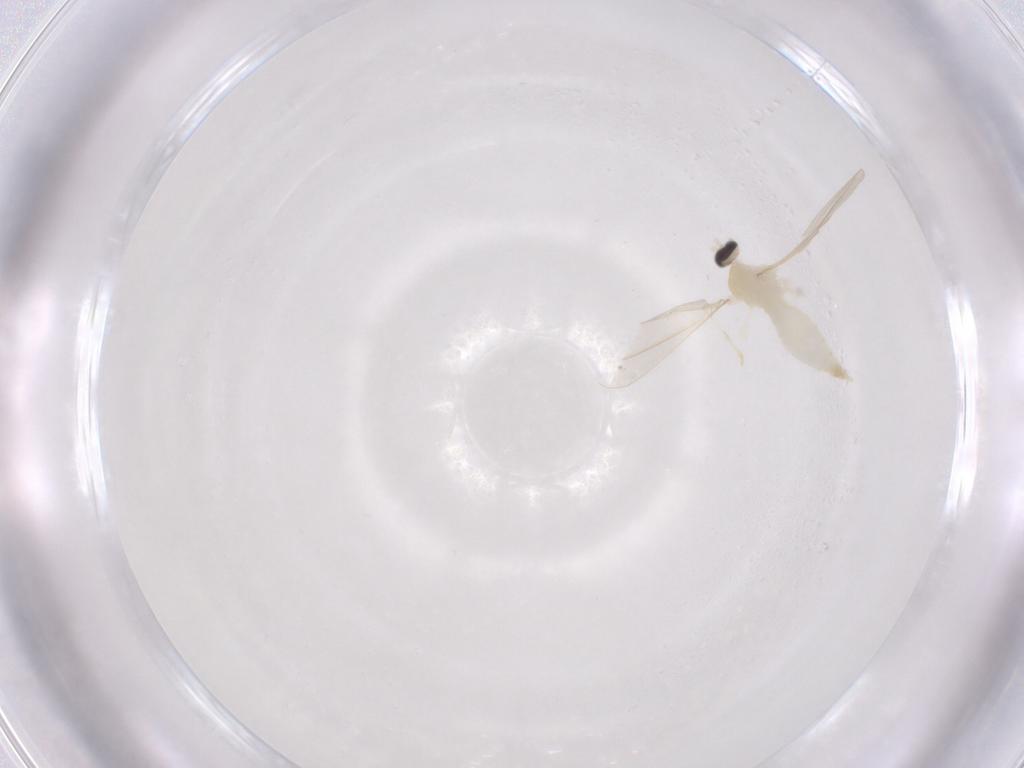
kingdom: Animalia
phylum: Arthropoda
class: Insecta
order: Diptera
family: Cecidomyiidae
